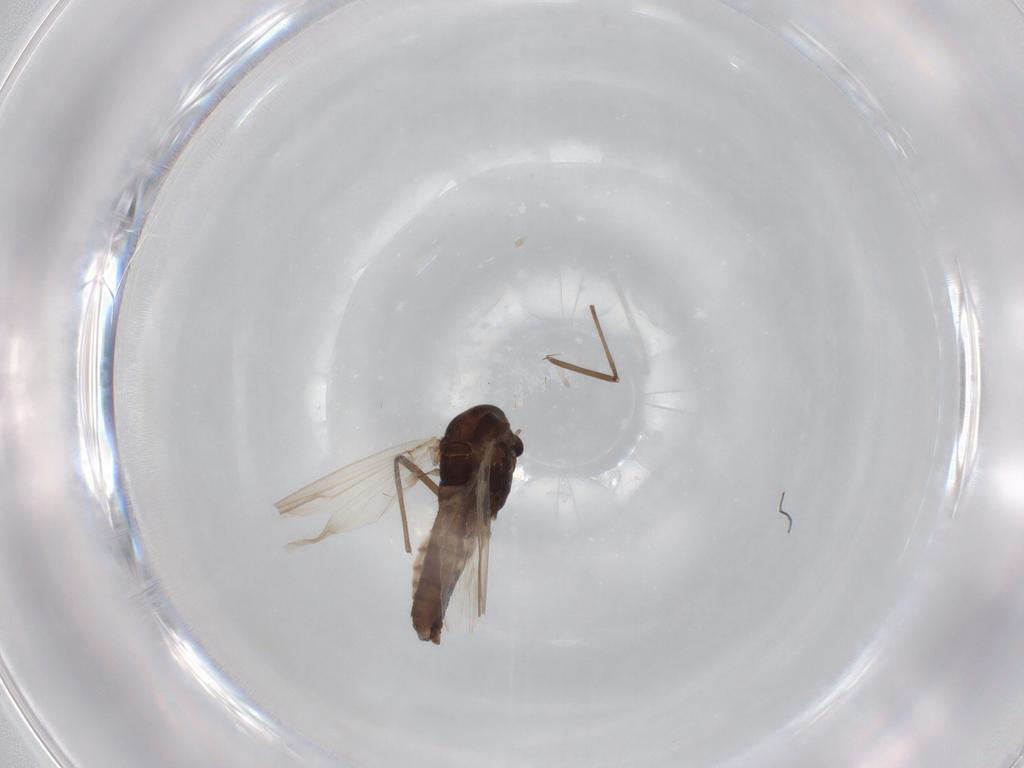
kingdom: Animalia
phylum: Arthropoda
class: Insecta
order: Diptera
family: Chironomidae
